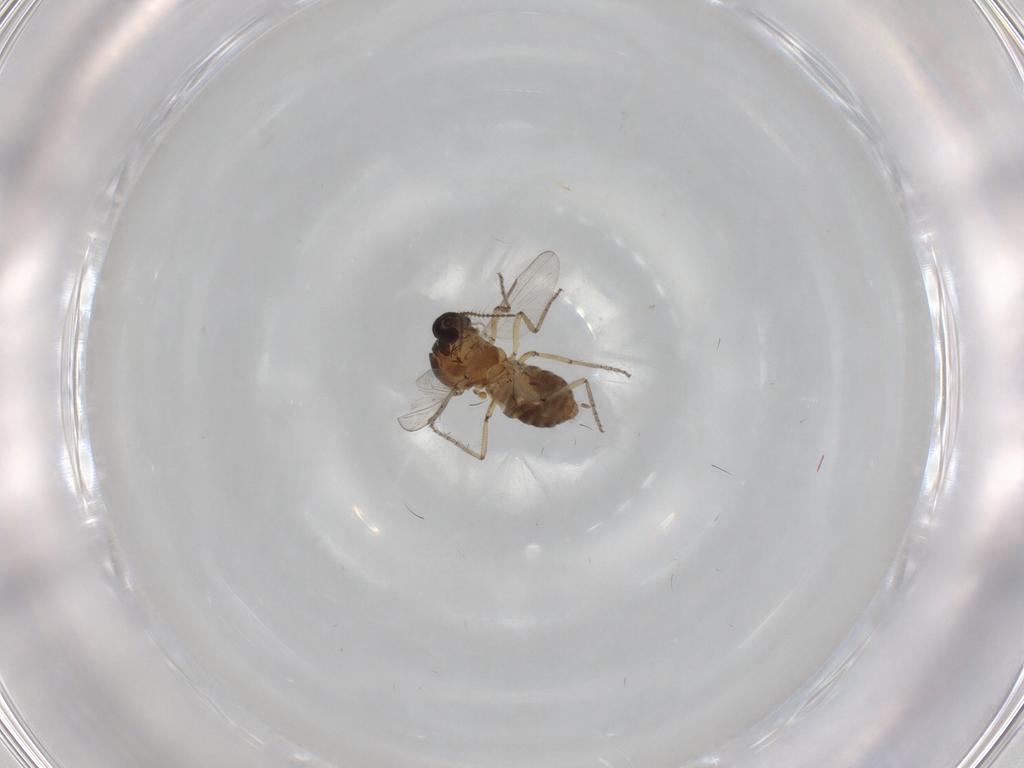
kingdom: Animalia
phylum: Arthropoda
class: Insecta
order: Diptera
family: Ceratopogonidae
